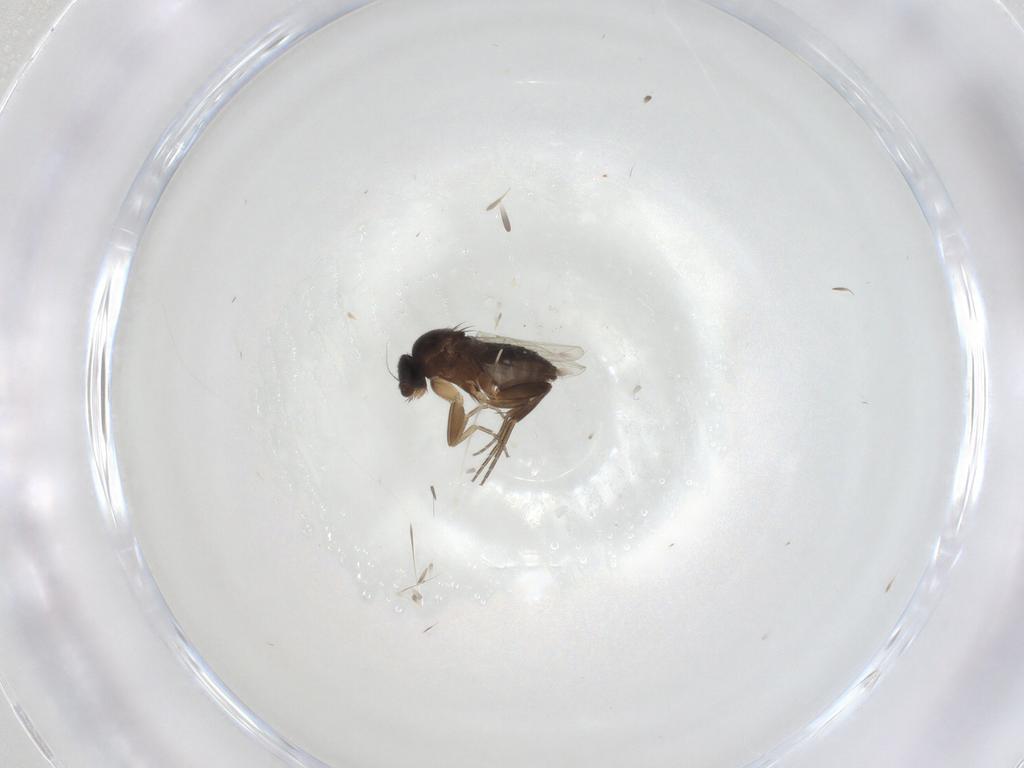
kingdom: Animalia
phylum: Arthropoda
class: Insecta
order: Diptera
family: Phoridae
